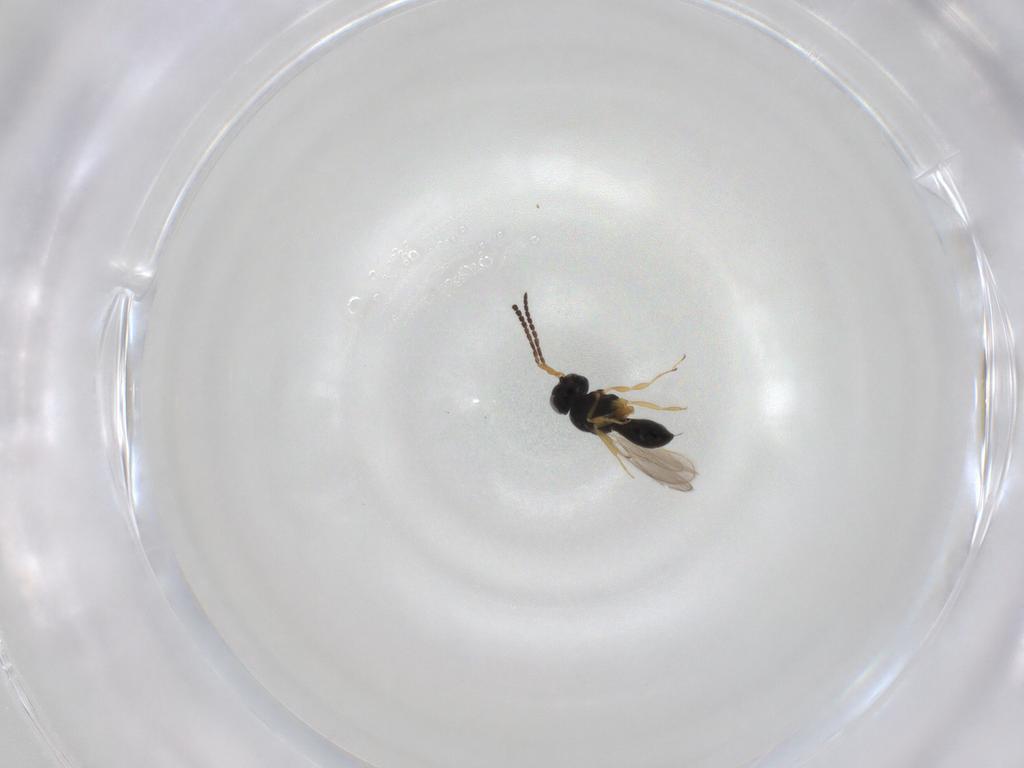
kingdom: Animalia
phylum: Arthropoda
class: Insecta
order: Hymenoptera
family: Scelionidae
